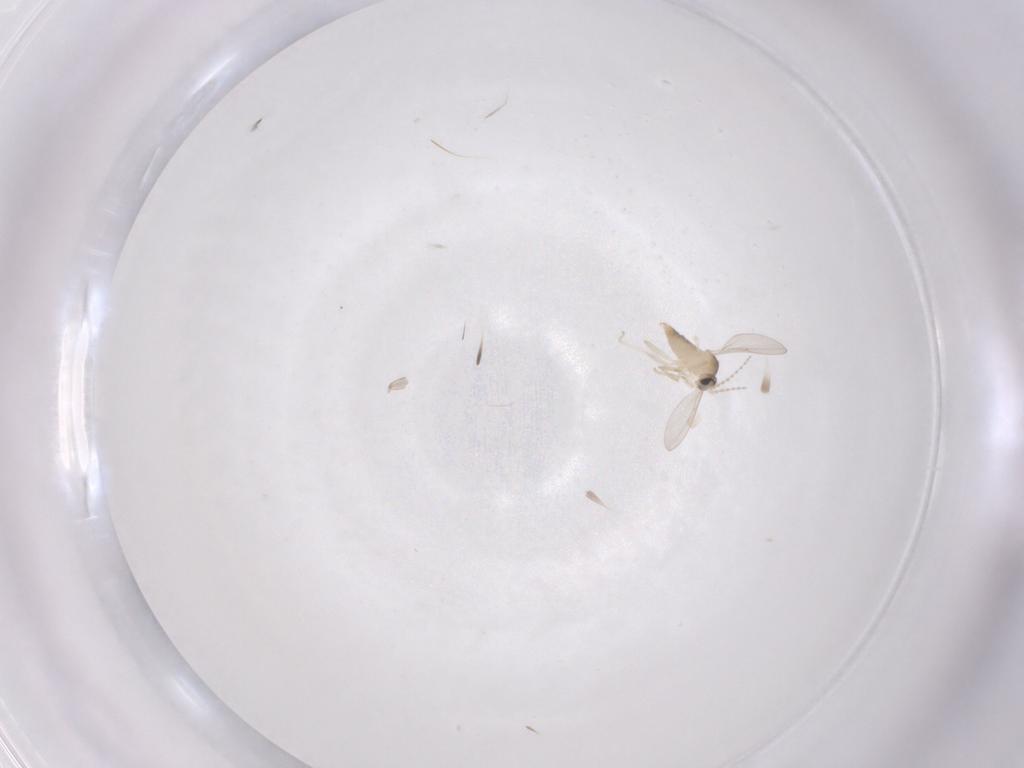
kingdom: Animalia
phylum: Arthropoda
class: Insecta
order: Diptera
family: Cecidomyiidae
